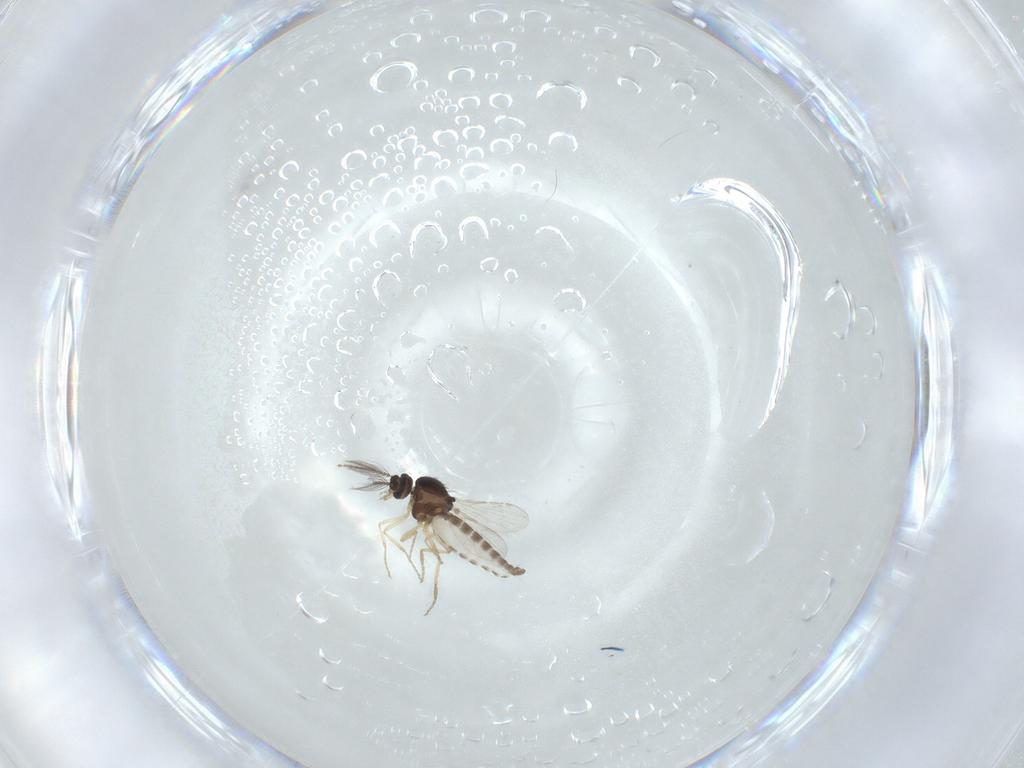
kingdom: Animalia
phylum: Arthropoda
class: Insecta
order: Diptera
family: Ceratopogonidae
